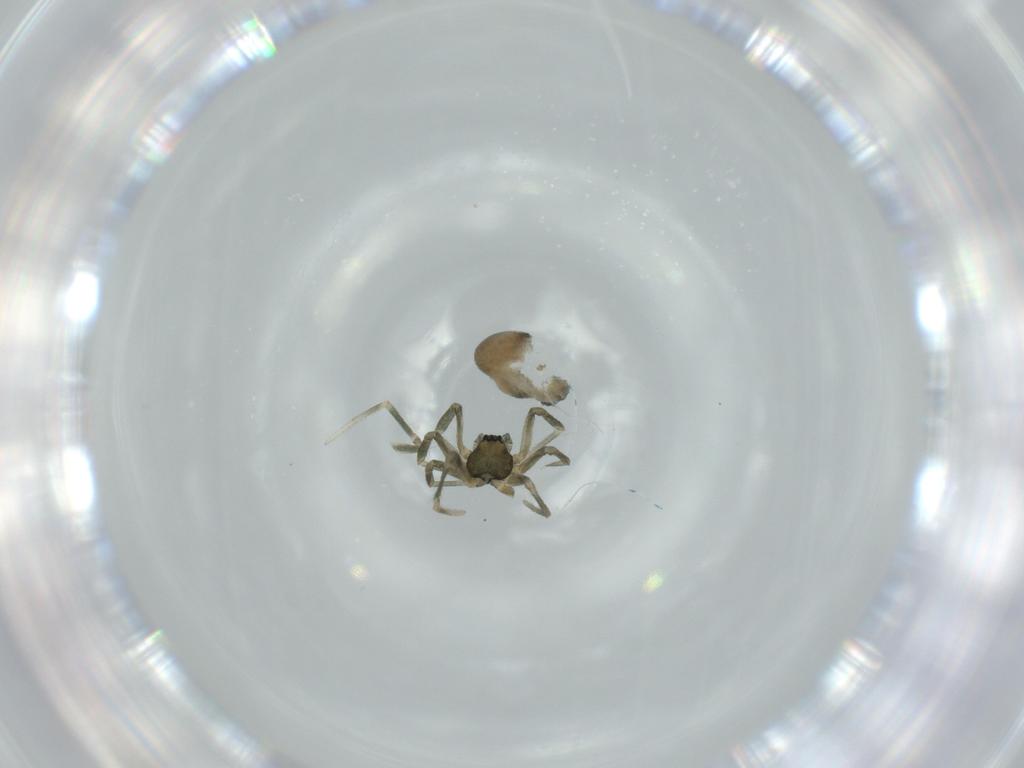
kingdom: Animalia
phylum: Arthropoda
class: Arachnida
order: Araneae
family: Linyphiidae
